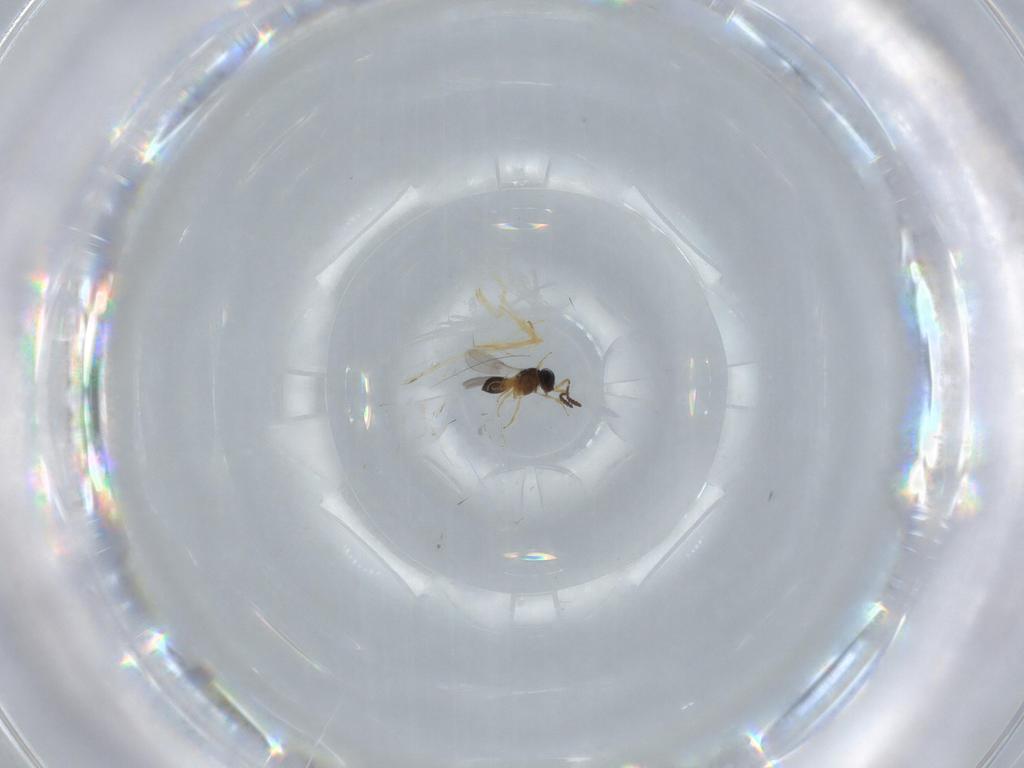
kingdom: Animalia
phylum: Arthropoda
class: Insecta
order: Hymenoptera
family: Scelionidae
